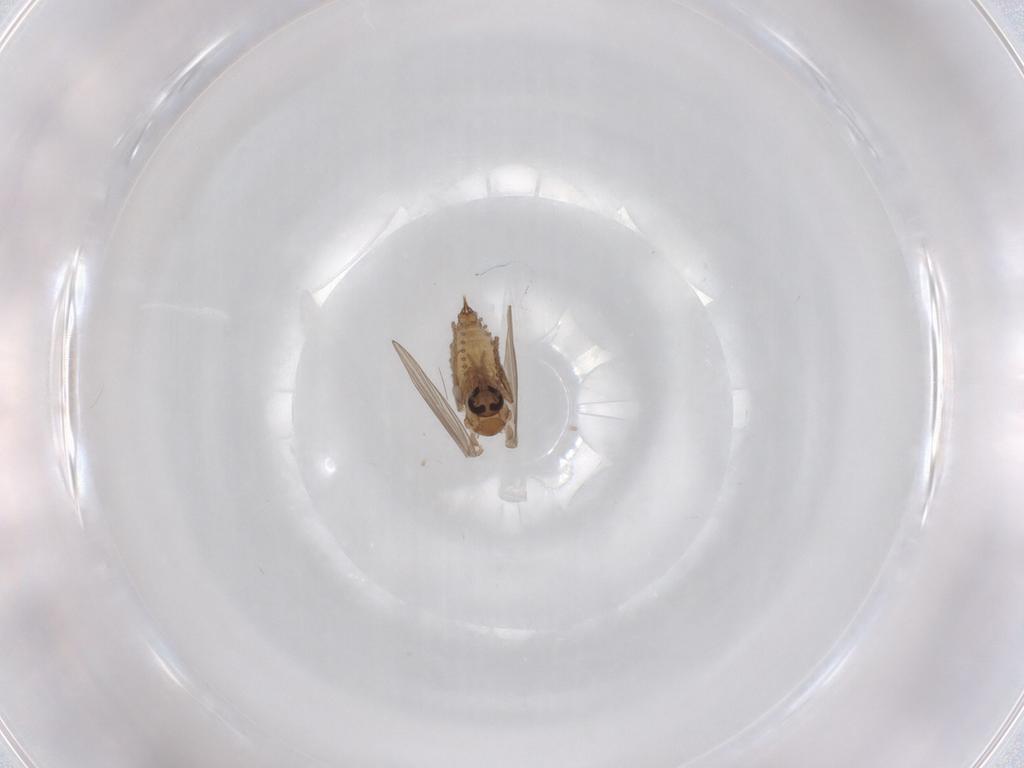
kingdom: Animalia
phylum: Arthropoda
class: Insecta
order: Diptera
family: Psychodidae
